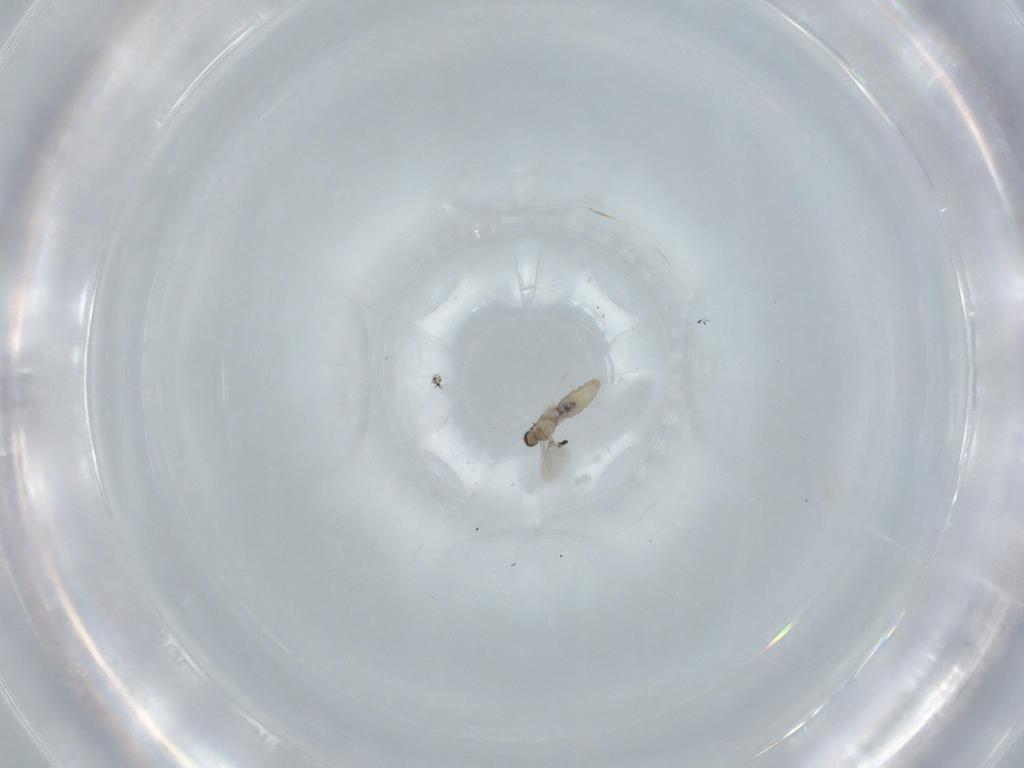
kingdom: Animalia
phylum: Arthropoda
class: Insecta
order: Diptera
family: Cecidomyiidae
